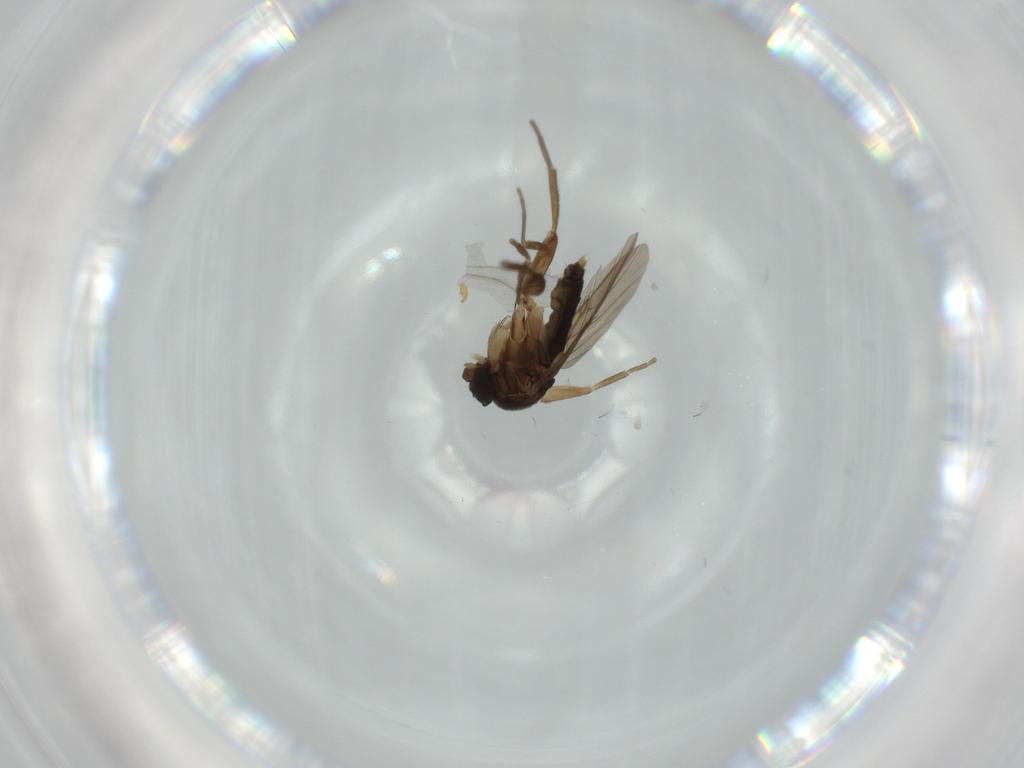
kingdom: Animalia
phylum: Arthropoda
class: Insecta
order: Diptera
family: Phoridae
